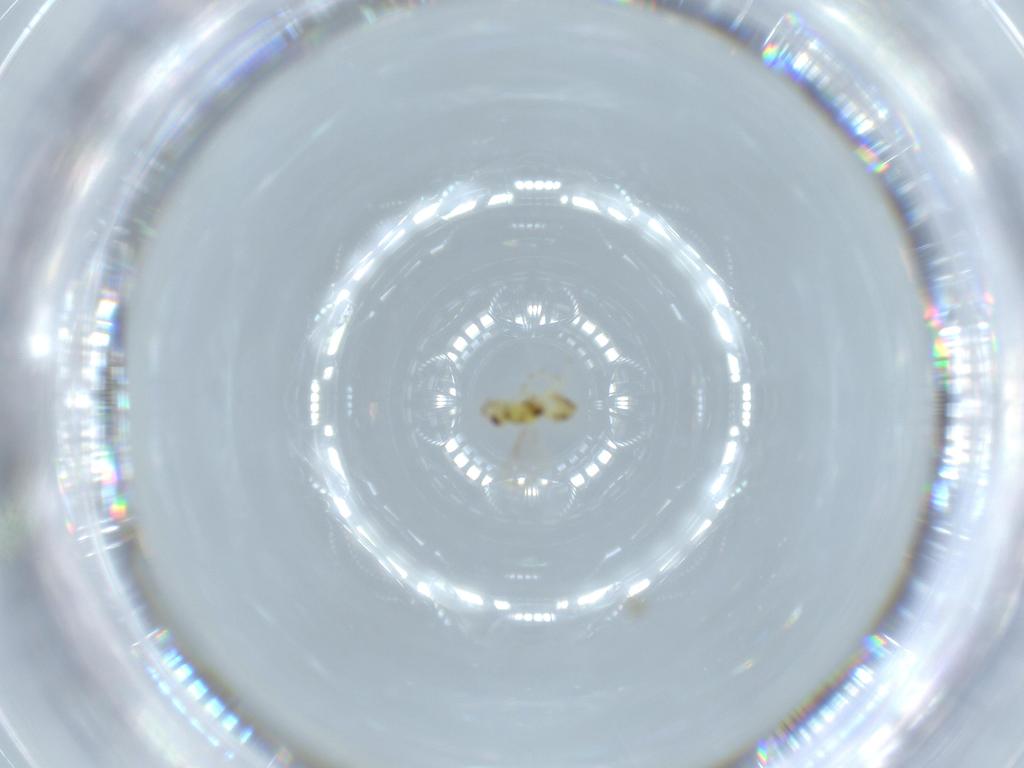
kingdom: Animalia
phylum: Arthropoda
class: Insecta
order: Hymenoptera
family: Eulophidae
